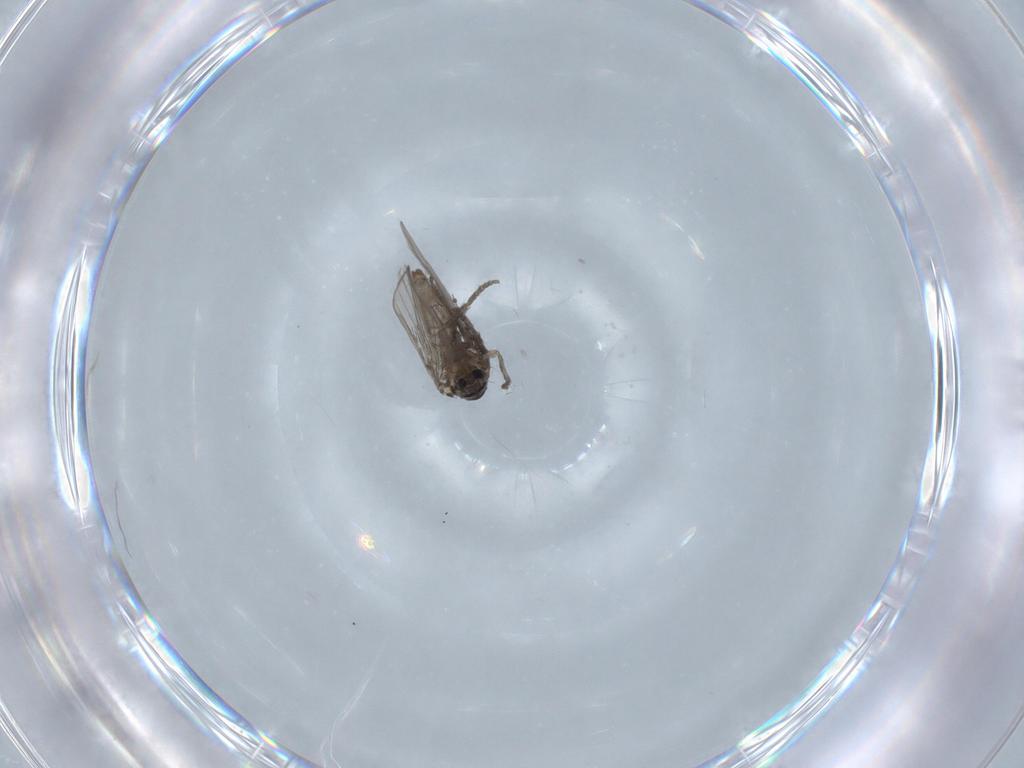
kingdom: Animalia
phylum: Arthropoda
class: Insecta
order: Diptera
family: Psychodidae
